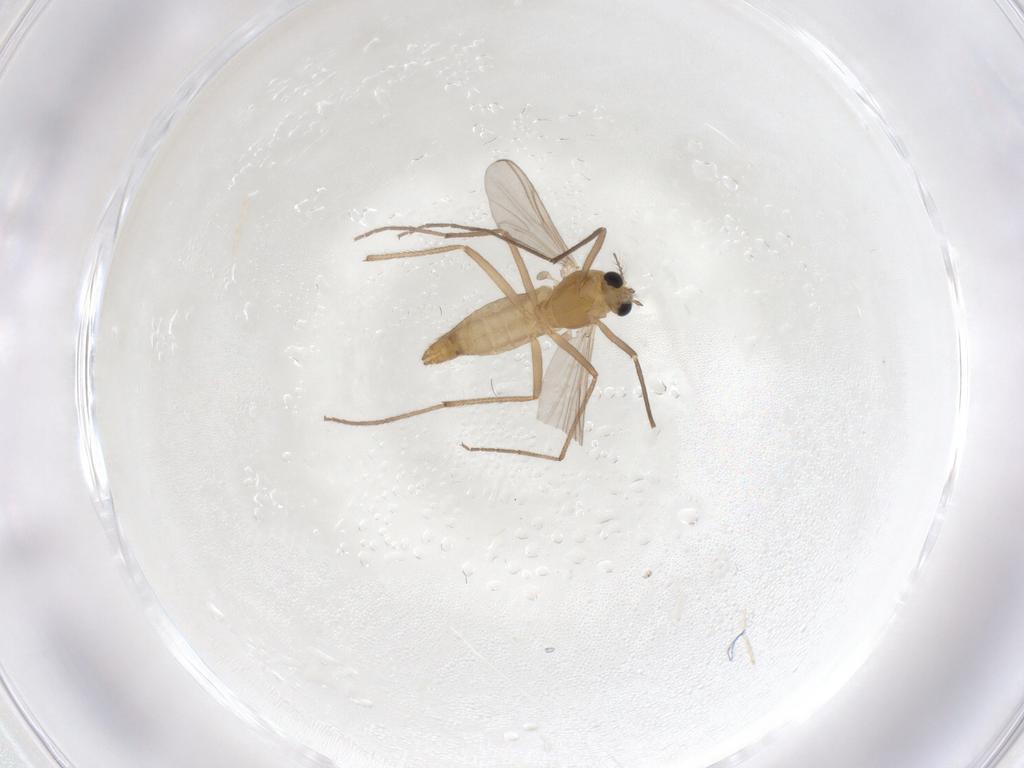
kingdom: Animalia
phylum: Arthropoda
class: Insecta
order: Diptera
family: Chironomidae
